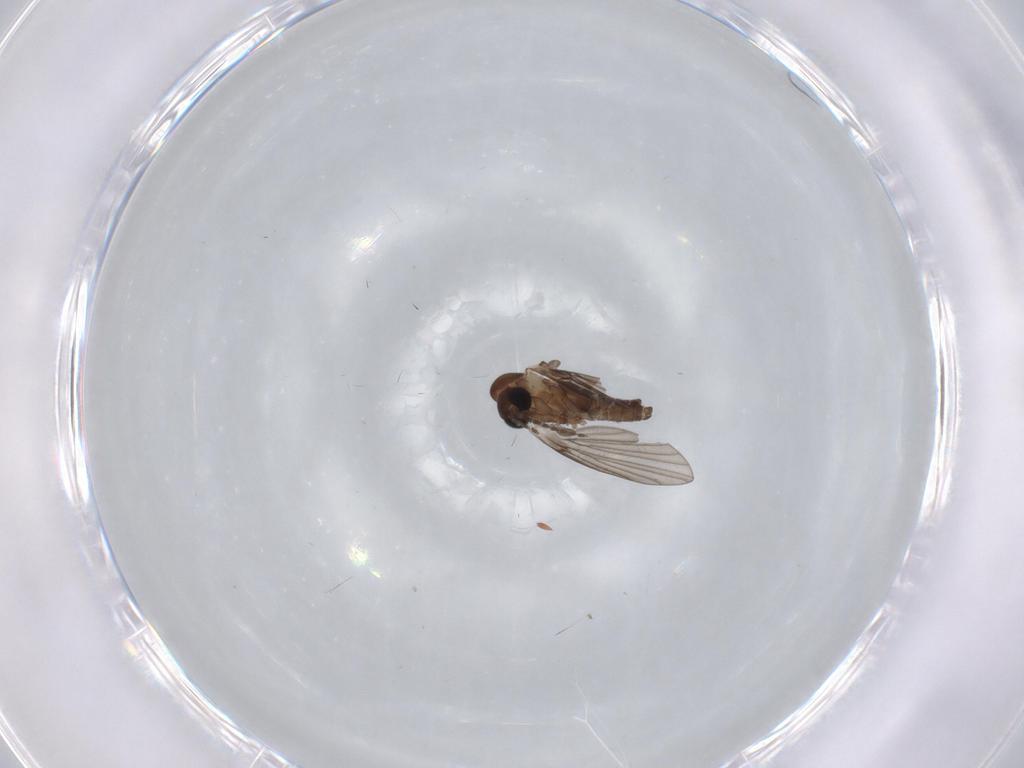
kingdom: Animalia
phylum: Arthropoda
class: Insecta
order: Diptera
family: Psychodidae
